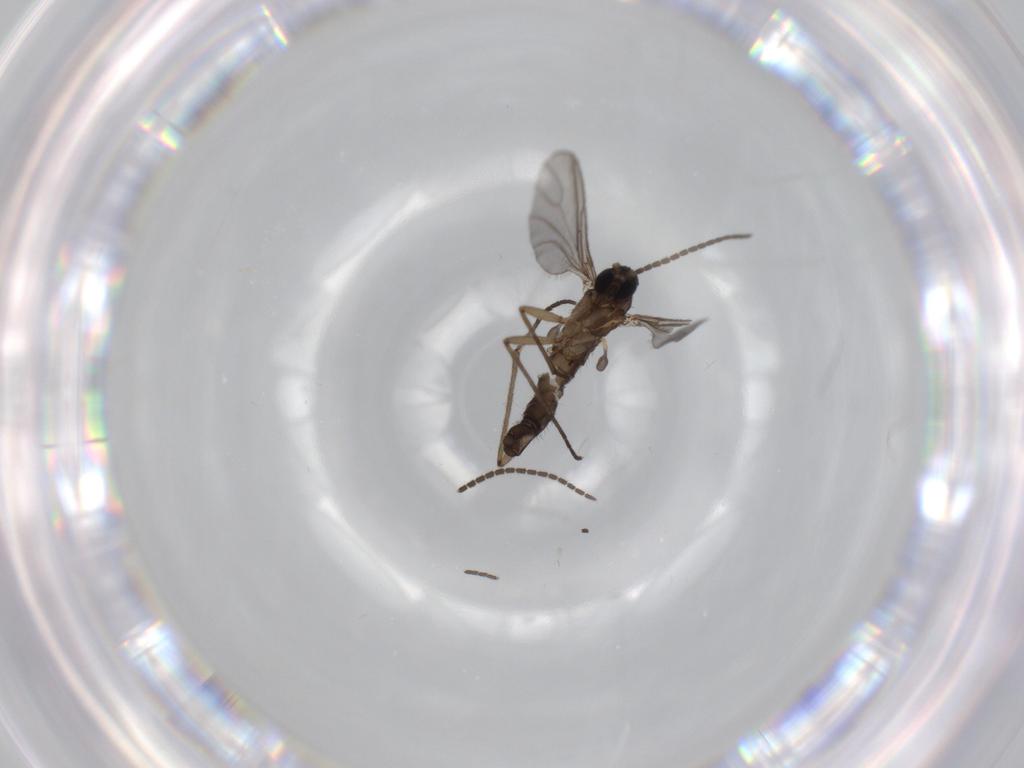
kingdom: Animalia
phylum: Arthropoda
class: Insecta
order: Diptera
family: Sciaridae
